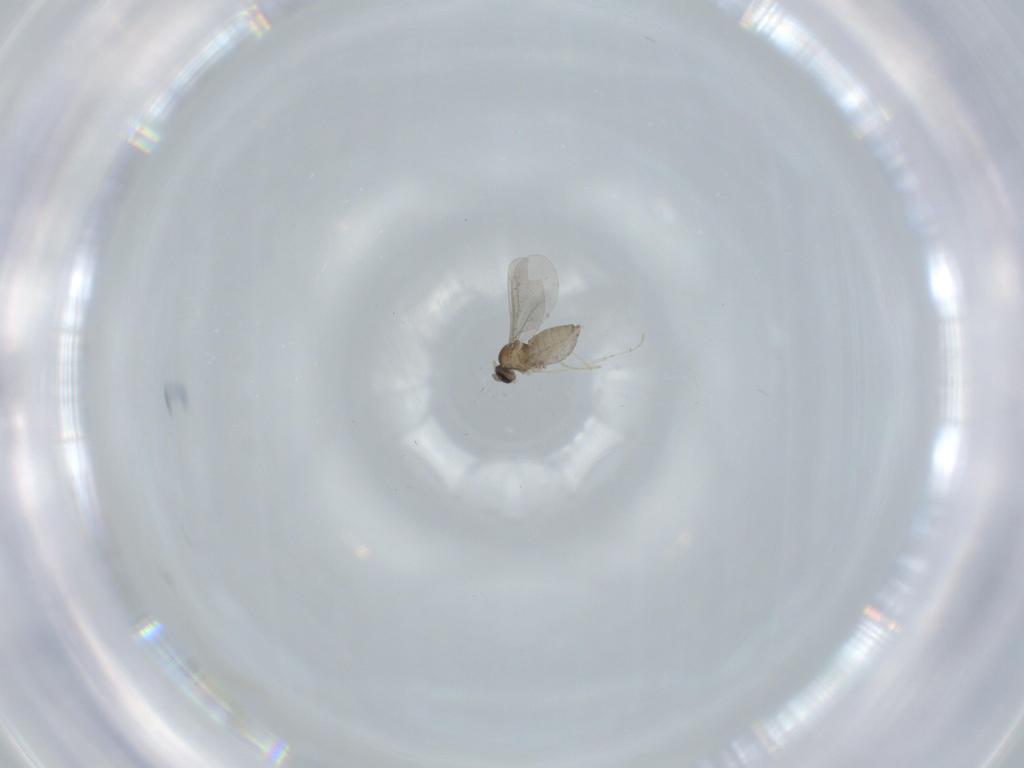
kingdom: Animalia
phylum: Arthropoda
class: Insecta
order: Diptera
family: Cecidomyiidae
